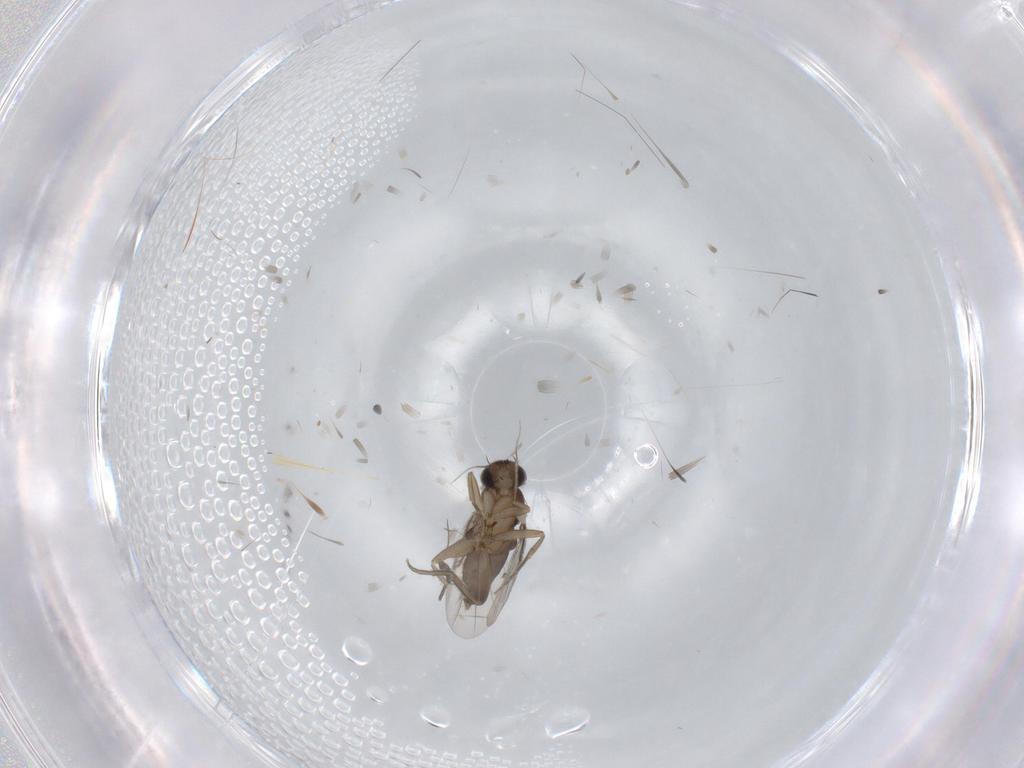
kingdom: Animalia
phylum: Arthropoda
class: Insecta
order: Diptera
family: Phoridae
